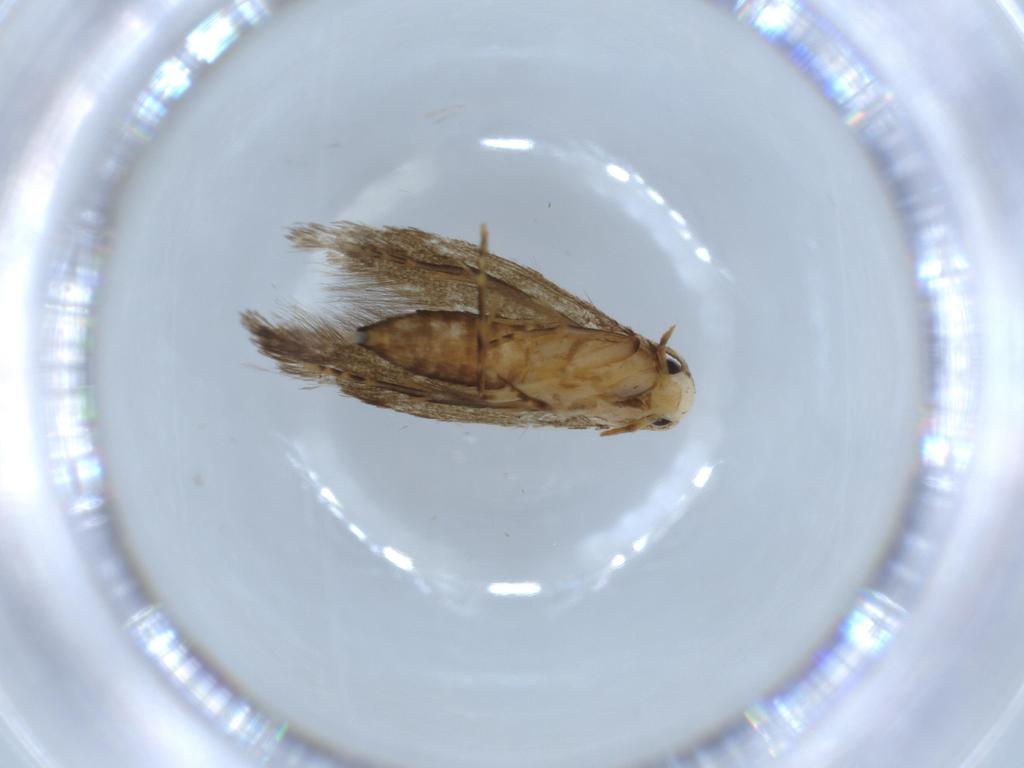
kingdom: Animalia
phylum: Arthropoda
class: Insecta
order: Lepidoptera
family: Tineidae
